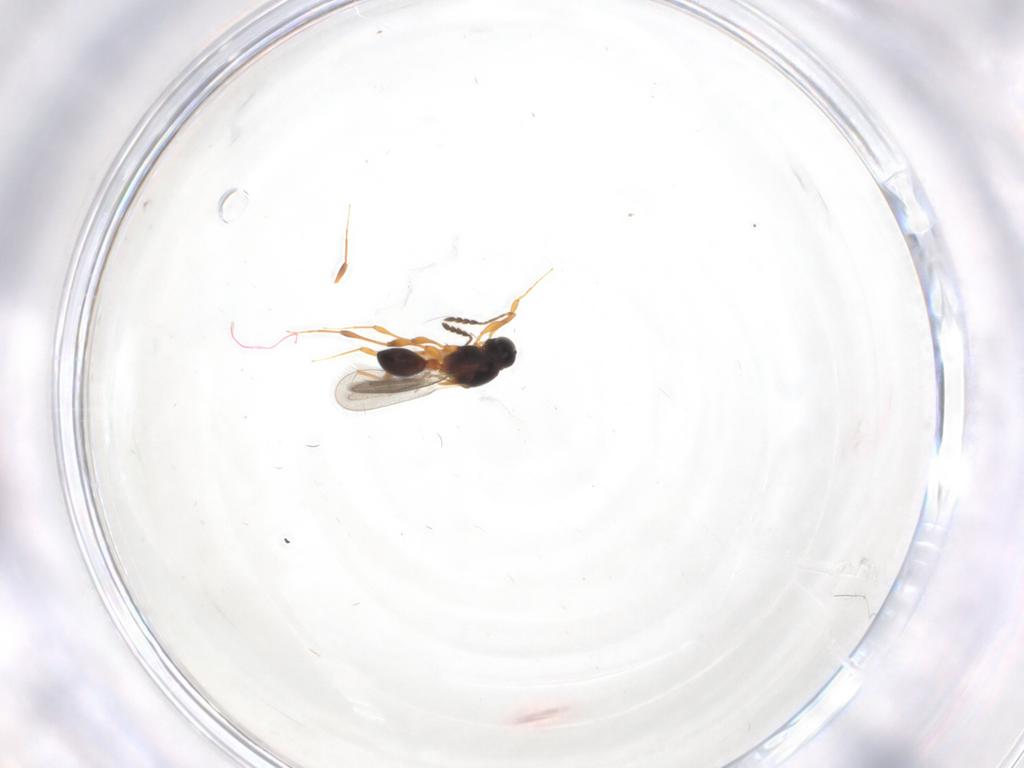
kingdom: Animalia
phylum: Arthropoda
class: Insecta
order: Hymenoptera
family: Platygastridae
